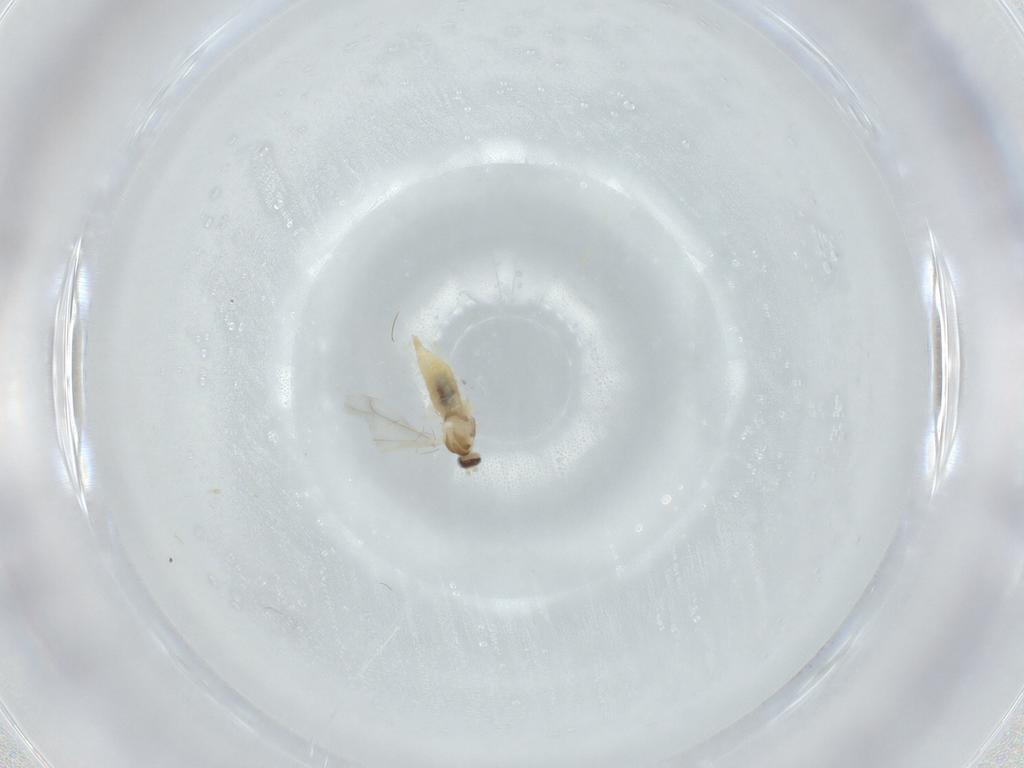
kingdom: Animalia
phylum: Arthropoda
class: Insecta
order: Diptera
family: Cecidomyiidae
